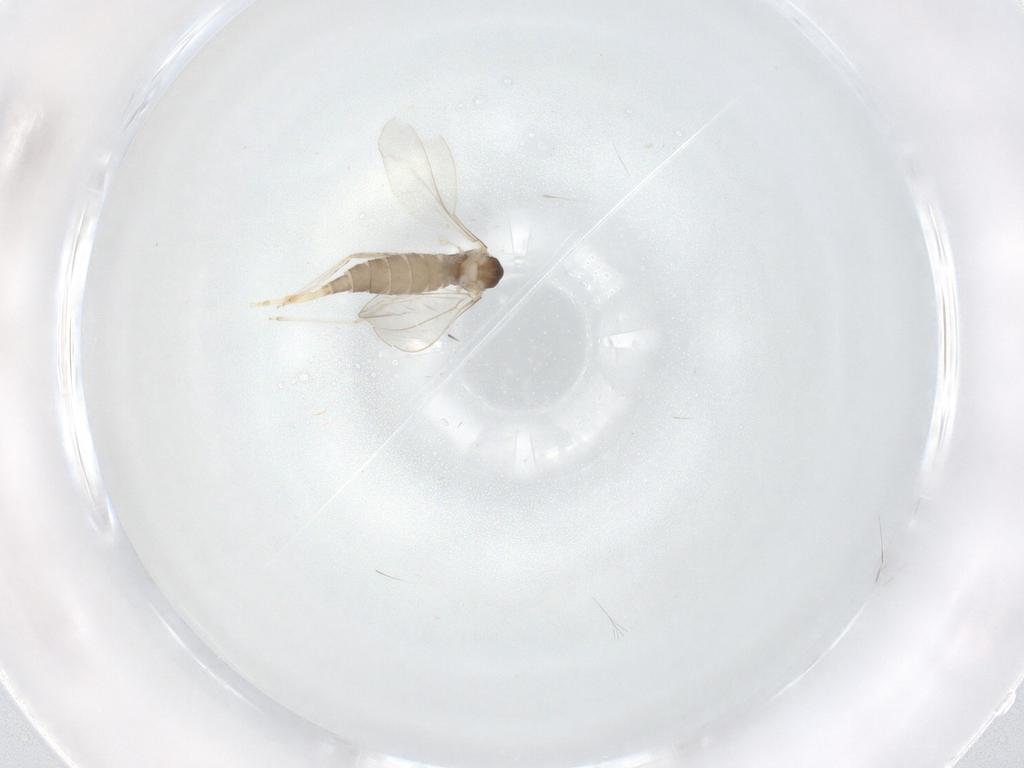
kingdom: Animalia
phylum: Arthropoda
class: Insecta
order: Diptera
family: Cecidomyiidae
